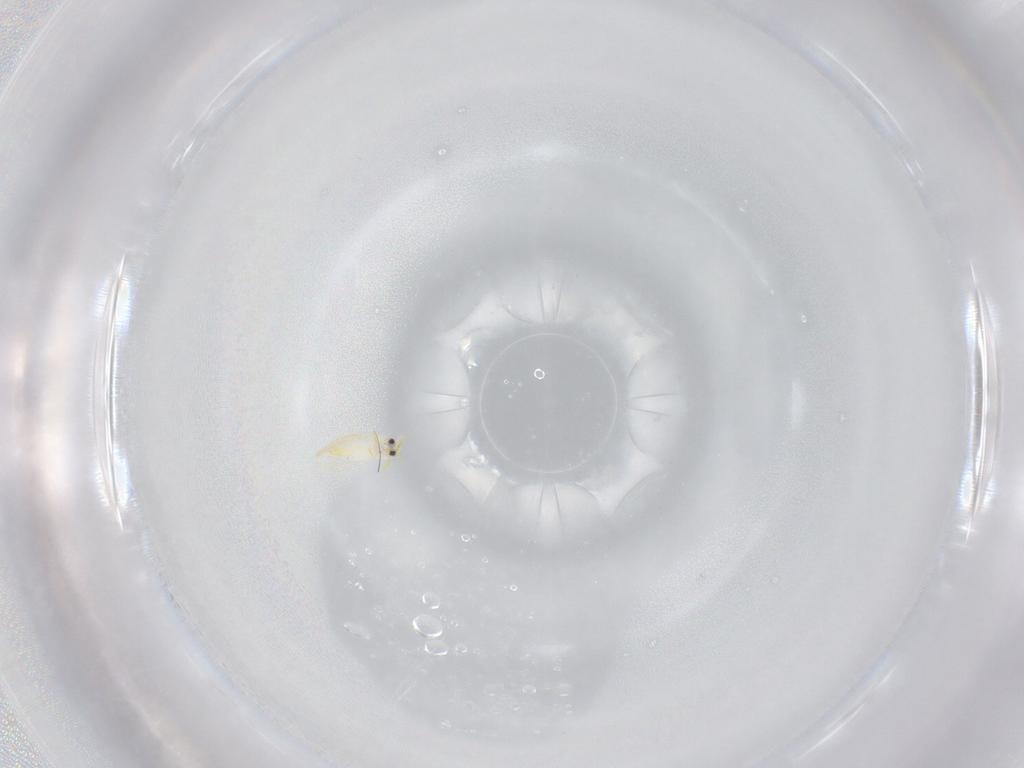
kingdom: Animalia
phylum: Arthropoda
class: Insecta
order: Hemiptera
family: Aleyrodidae
